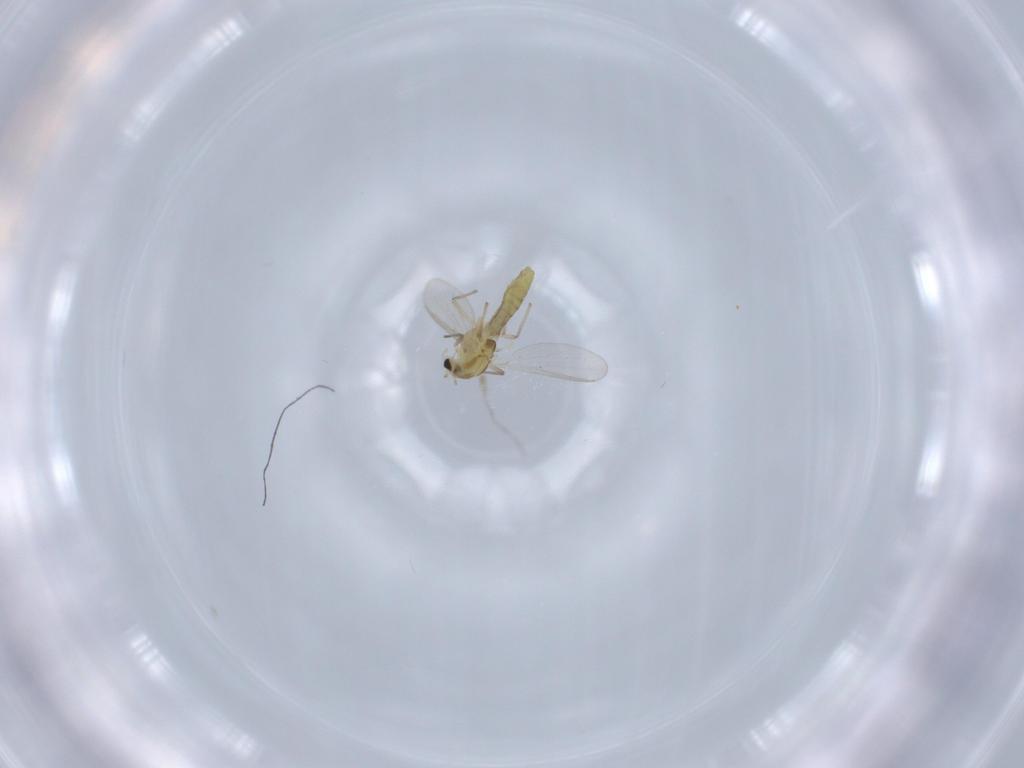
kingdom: Animalia
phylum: Arthropoda
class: Insecta
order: Diptera
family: Chironomidae
